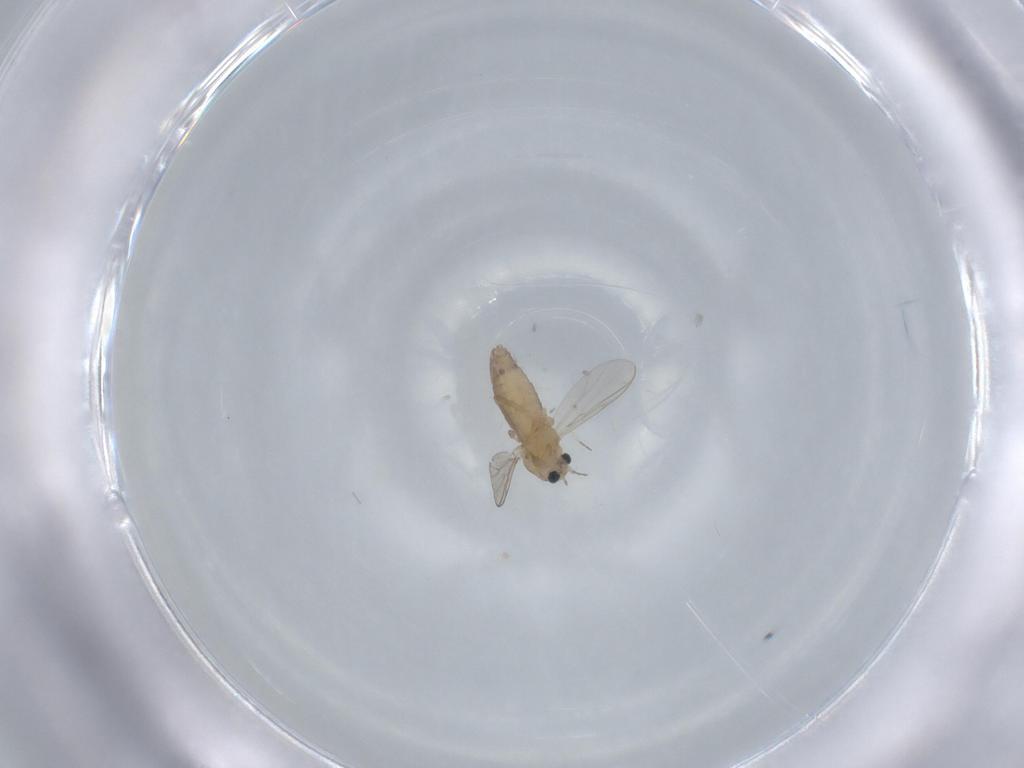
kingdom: Animalia
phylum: Arthropoda
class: Insecta
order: Diptera
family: Chironomidae
